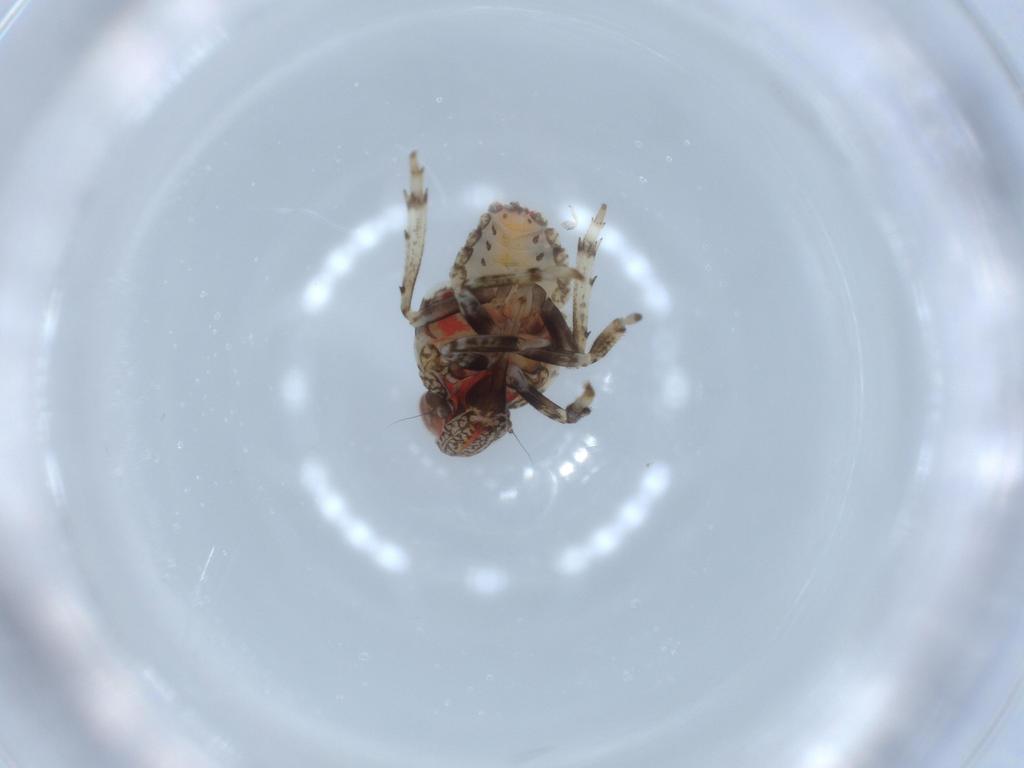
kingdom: Animalia
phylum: Arthropoda
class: Insecta
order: Hemiptera
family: Issidae
